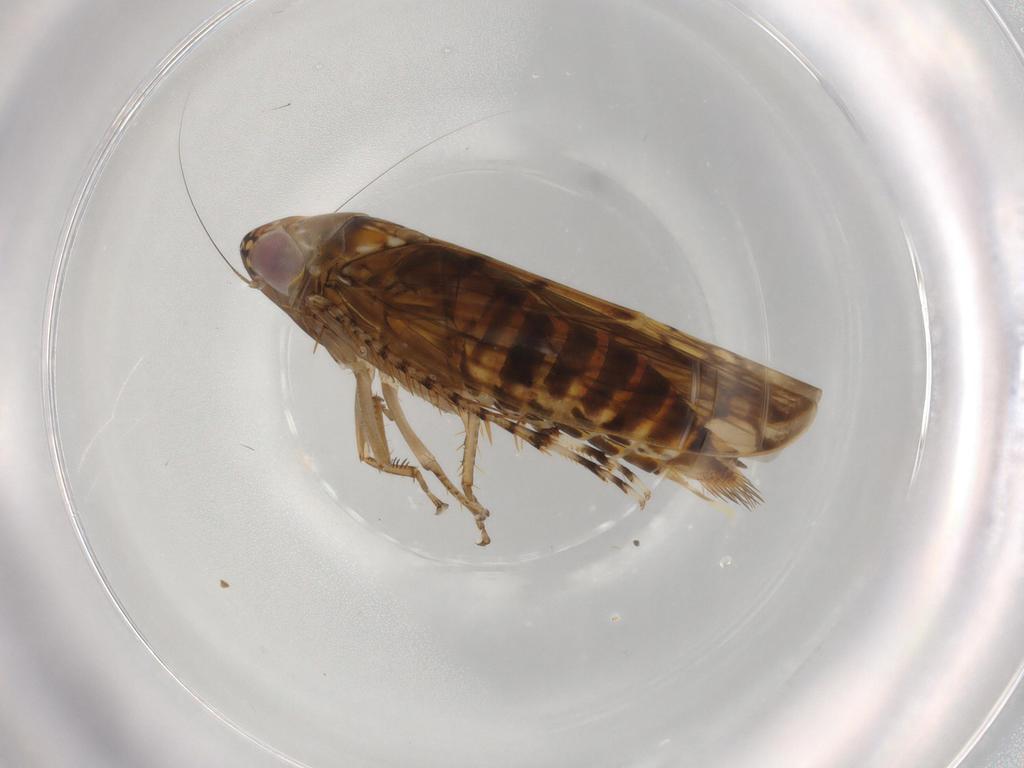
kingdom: Animalia
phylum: Arthropoda
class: Insecta
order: Hemiptera
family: Cicadellidae
